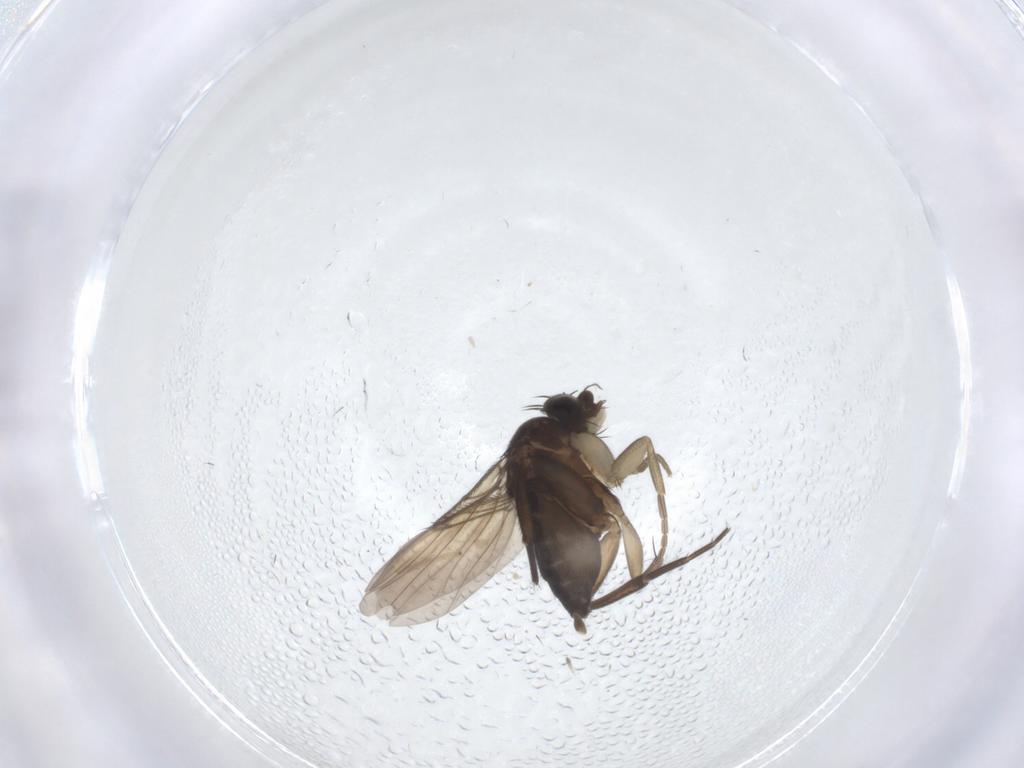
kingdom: Animalia
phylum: Arthropoda
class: Insecta
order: Diptera
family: Phoridae
